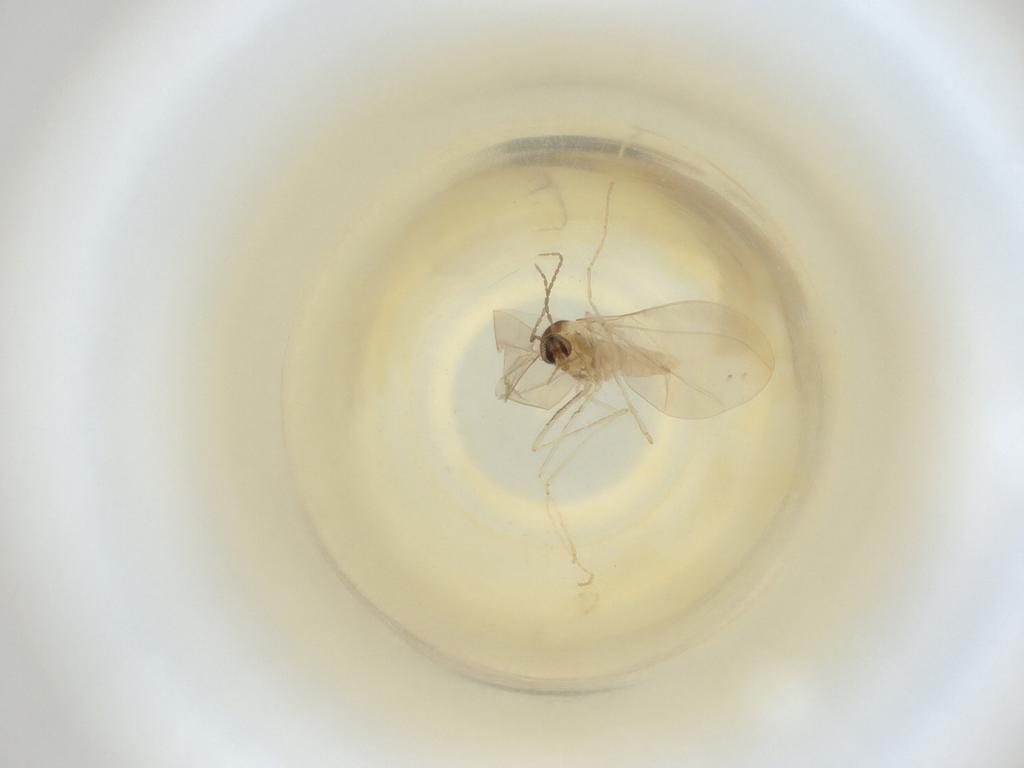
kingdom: Animalia
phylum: Arthropoda
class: Insecta
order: Diptera
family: Cecidomyiidae
